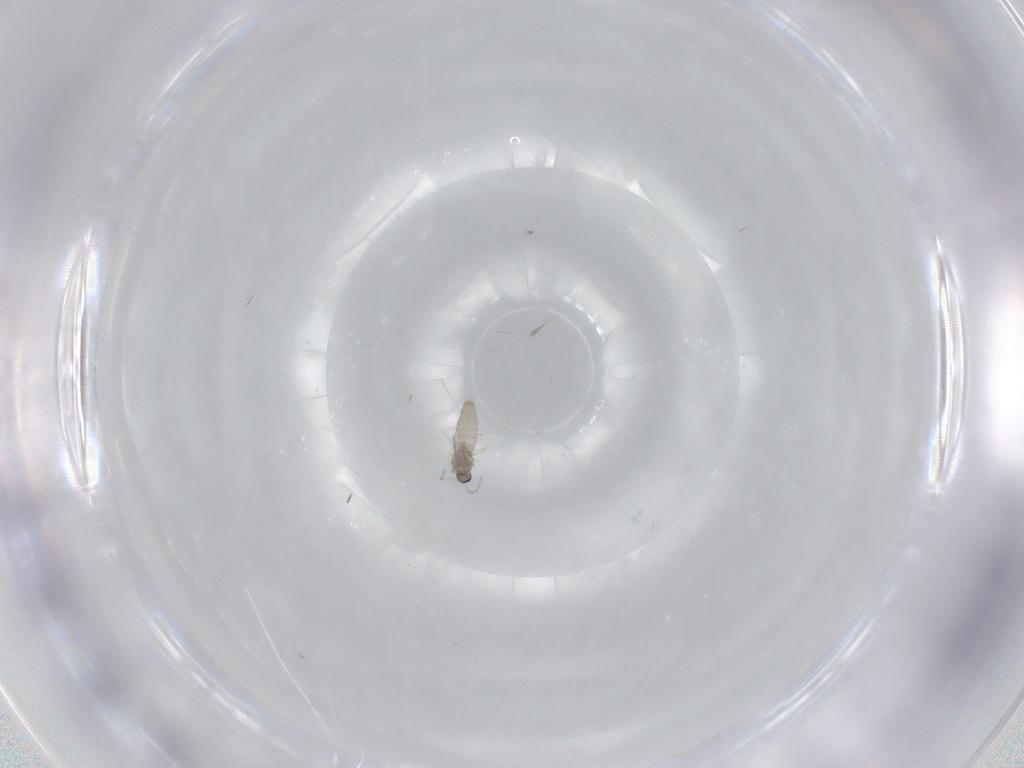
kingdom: Animalia
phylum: Arthropoda
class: Insecta
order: Diptera
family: Cecidomyiidae
